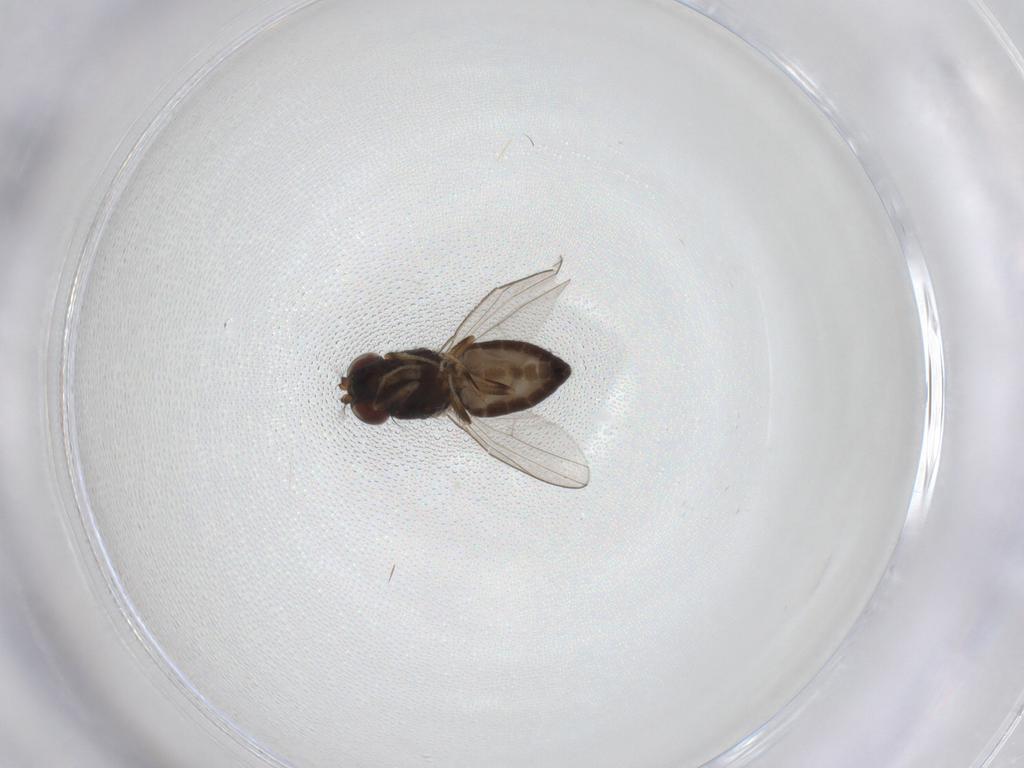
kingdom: Animalia
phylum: Arthropoda
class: Insecta
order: Diptera
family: Ephydridae
